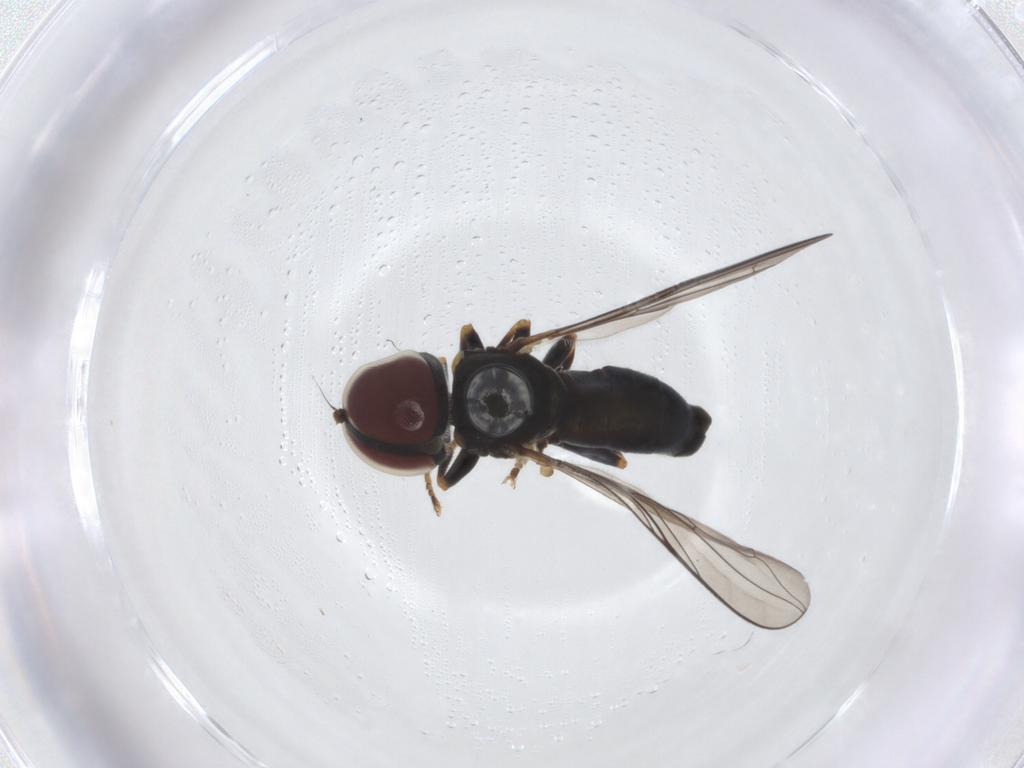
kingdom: Animalia
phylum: Arthropoda
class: Insecta
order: Diptera
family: Pipunculidae
